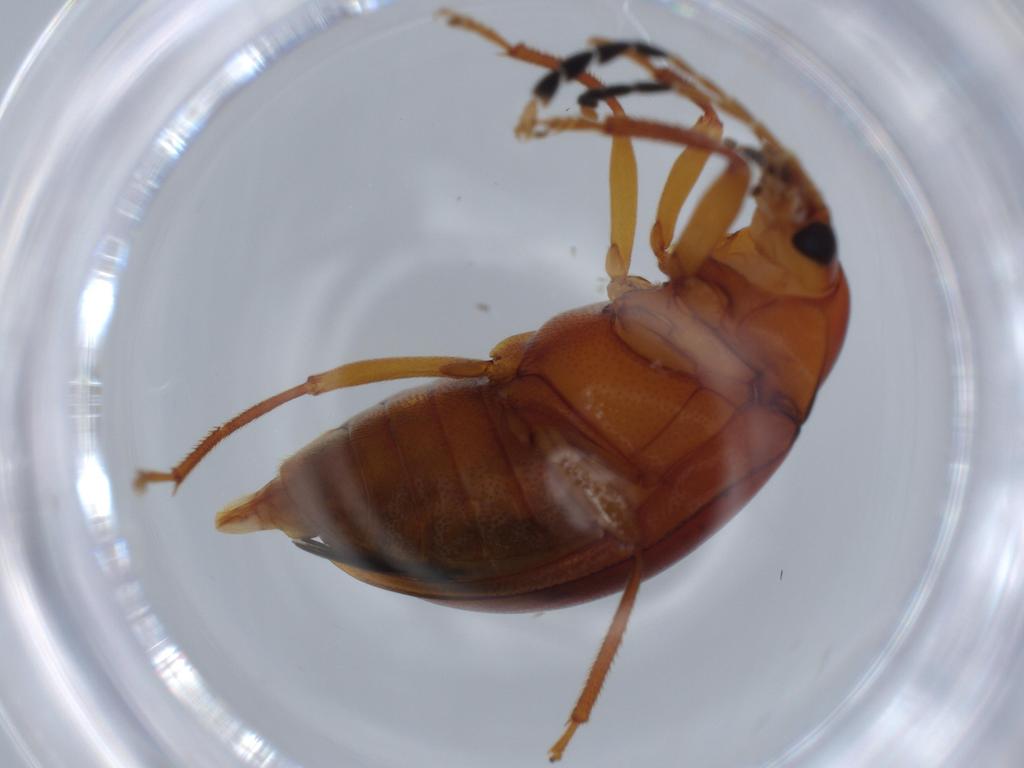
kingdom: Animalia
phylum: Arthropoda
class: Insecta
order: Coleoptera
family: Ptilodactylidae
